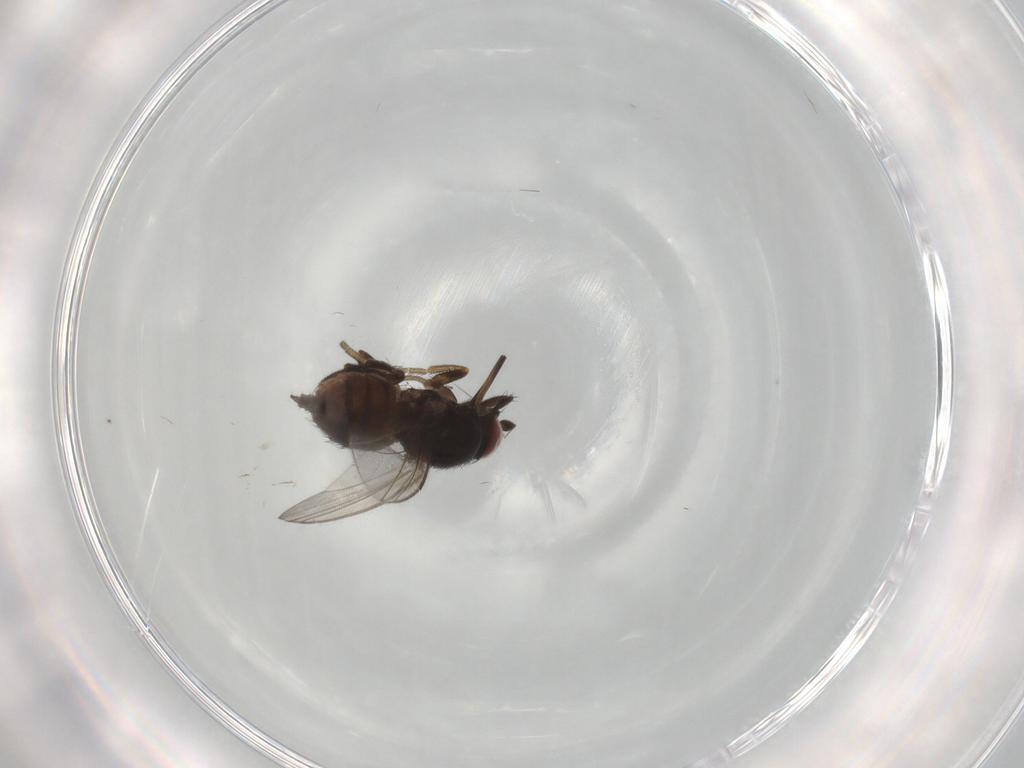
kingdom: Animalia
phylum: Arthropoda
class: Insecta
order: Diptera
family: Milichiidae
